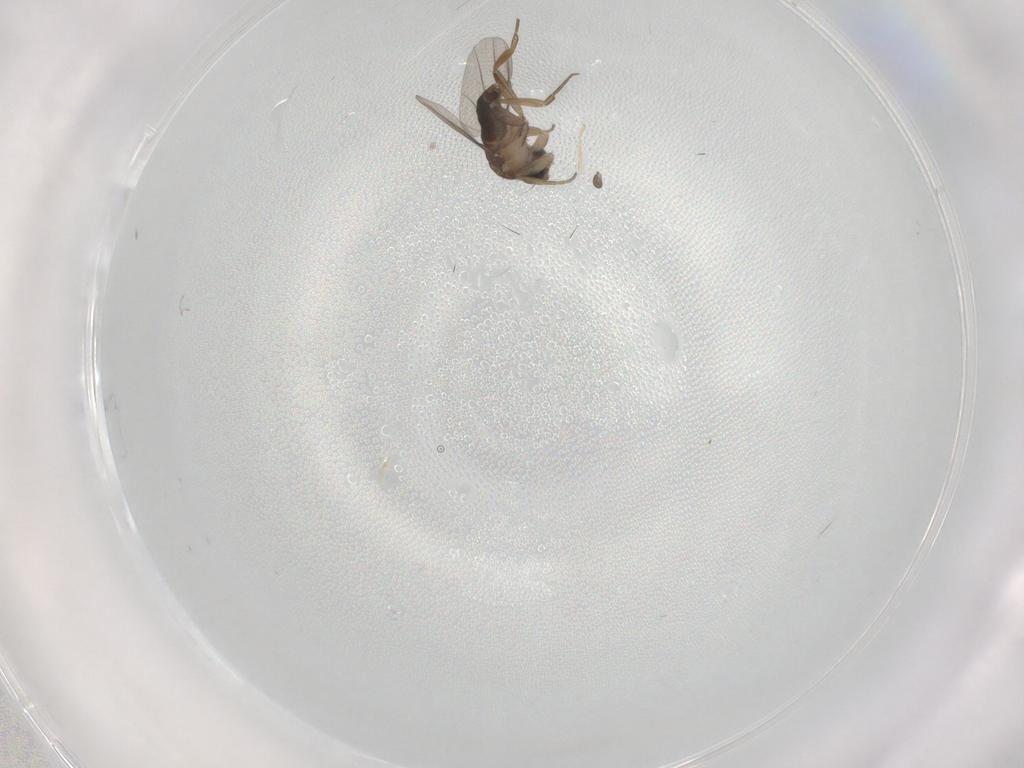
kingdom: Animalia
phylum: Arthropoda
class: Insecta
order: Diptera
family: Phoridae
